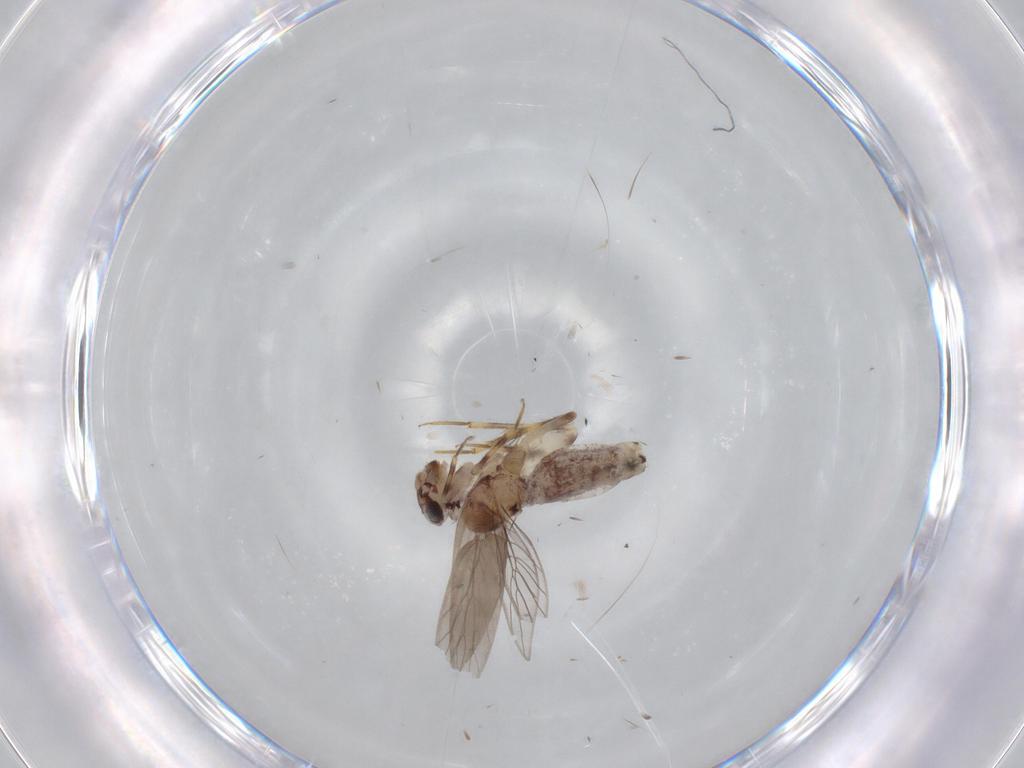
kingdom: Animalia
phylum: Arthropoda
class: Insecta
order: Psocodea
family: Lepidopsocidae
